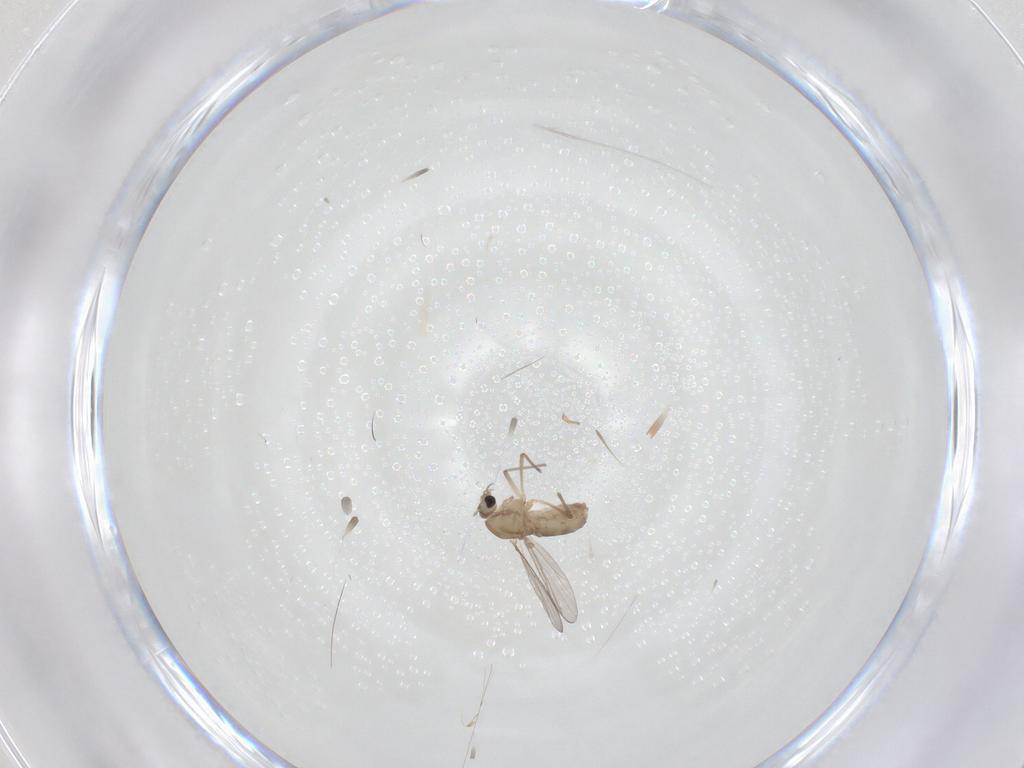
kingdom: Animalia
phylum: Arthropoda
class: Insecta
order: Diptera
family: Chironomidae
